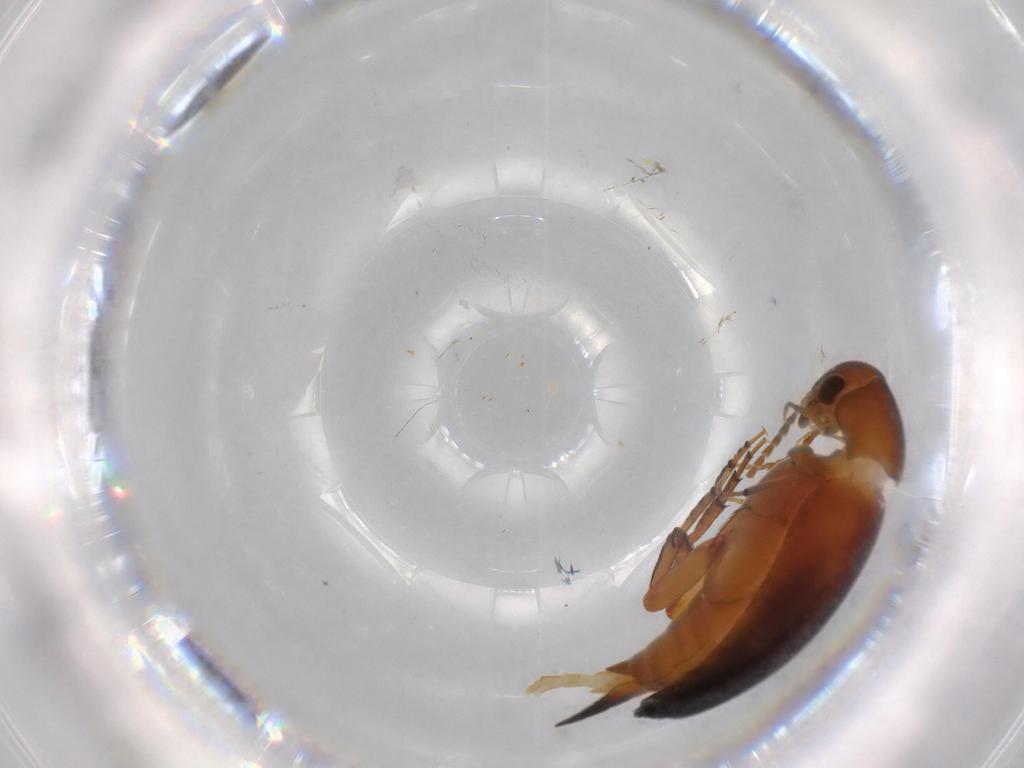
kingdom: Animalia
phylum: Arthropoda
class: Insecta
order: Coleoptera
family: Mordellidae
